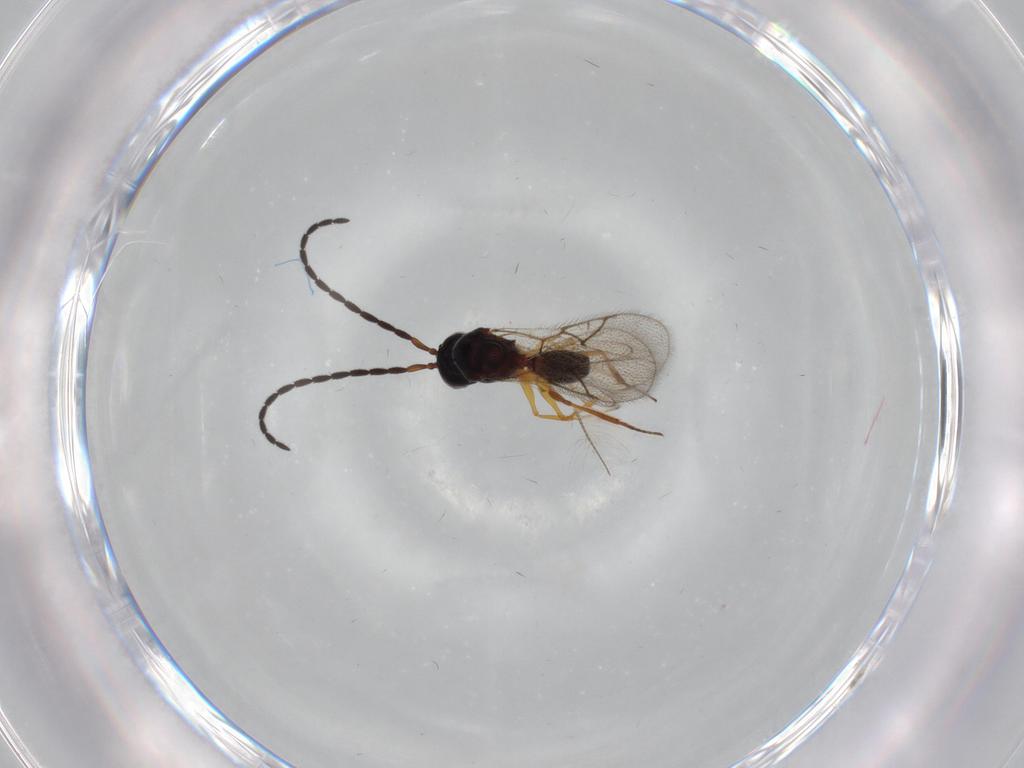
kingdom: Animalia
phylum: Arthropoda
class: Insecta
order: Hymenoptera
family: Figitidae
